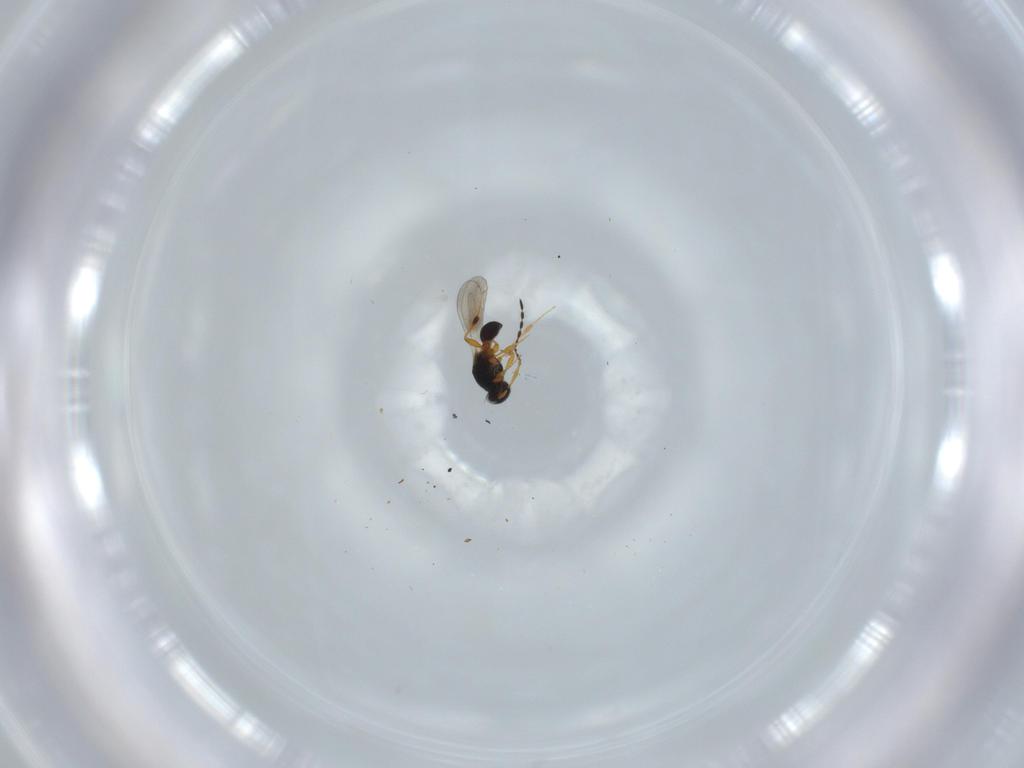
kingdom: Animalia
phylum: Arthropoda
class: Insecta
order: Hymenoptera
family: Platygastridae
